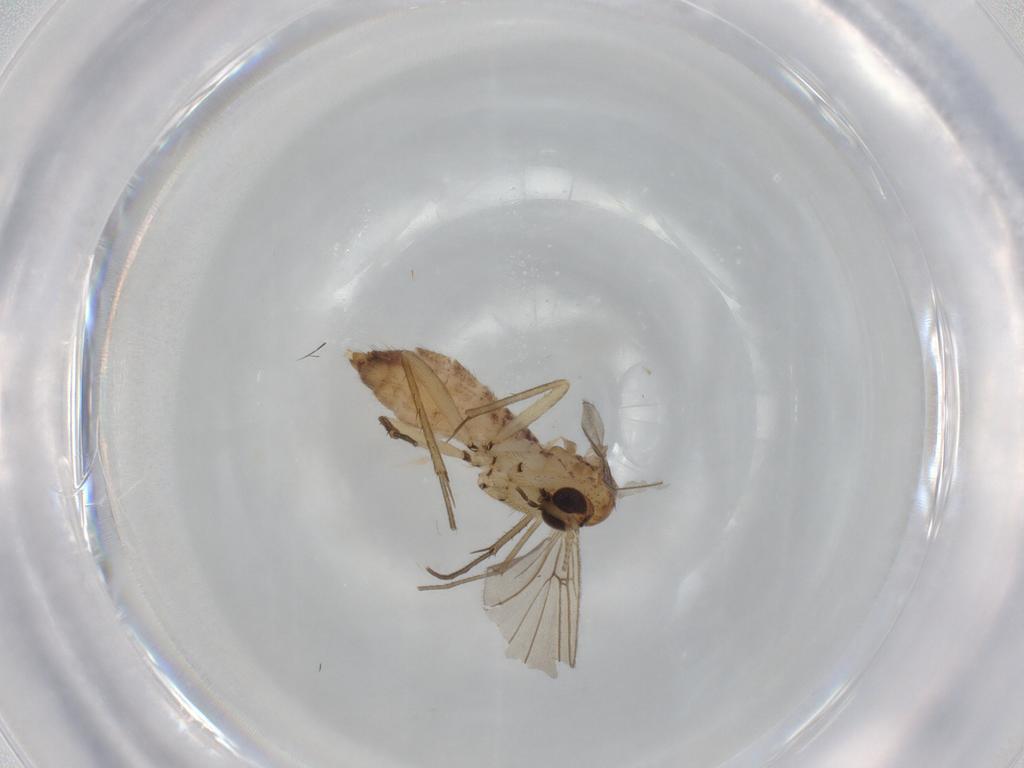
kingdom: Animalia
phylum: Arthropoda
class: Insecta
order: Diptera
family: Mycetophilidae
